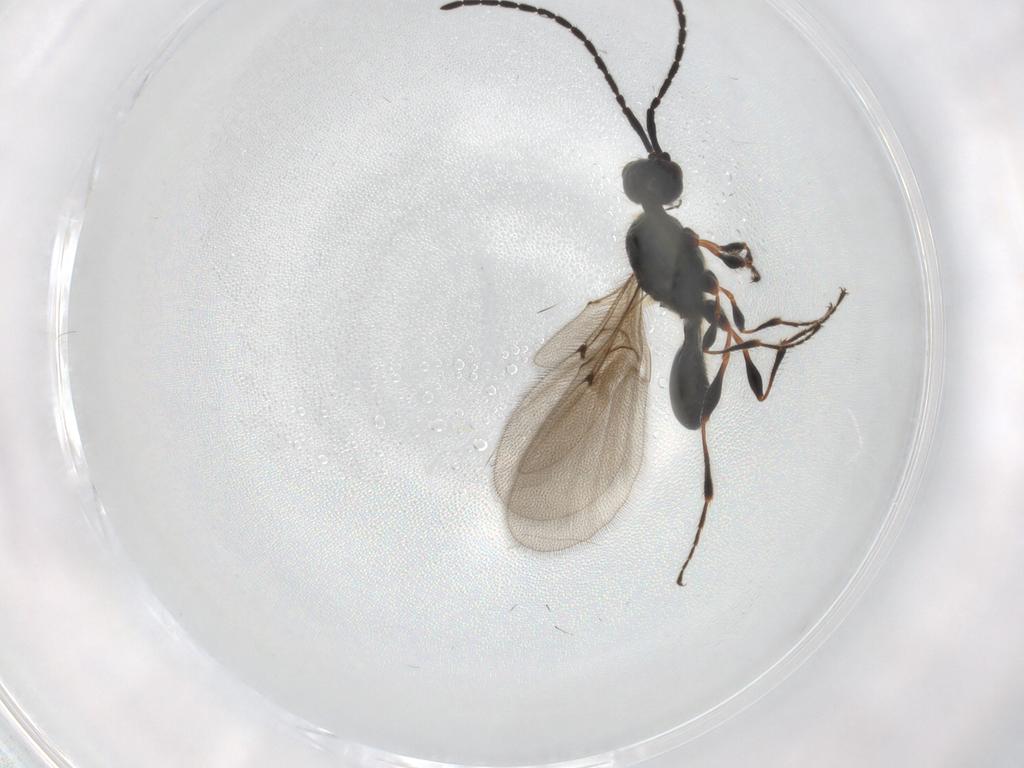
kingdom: Animalia
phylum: Arthropoda
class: Insecta
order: Hymenoptera
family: Diapriidae
